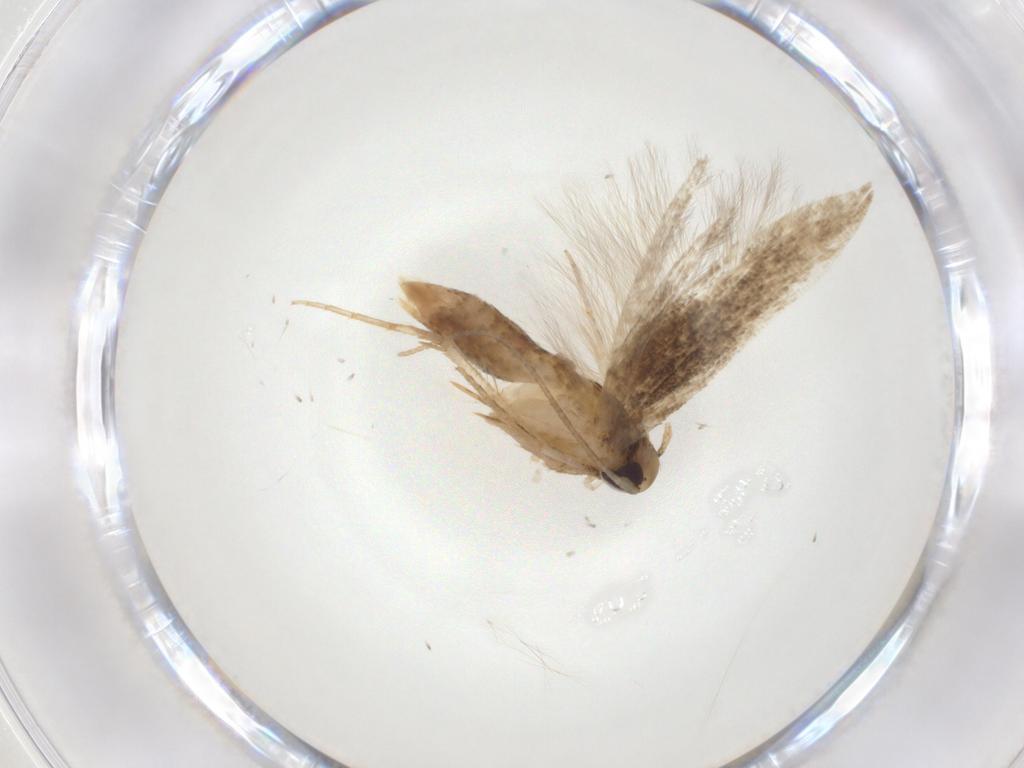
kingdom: Animalia
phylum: Arthropoda
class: Insecta
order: Lepidoptera
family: Cosmopterigidae
